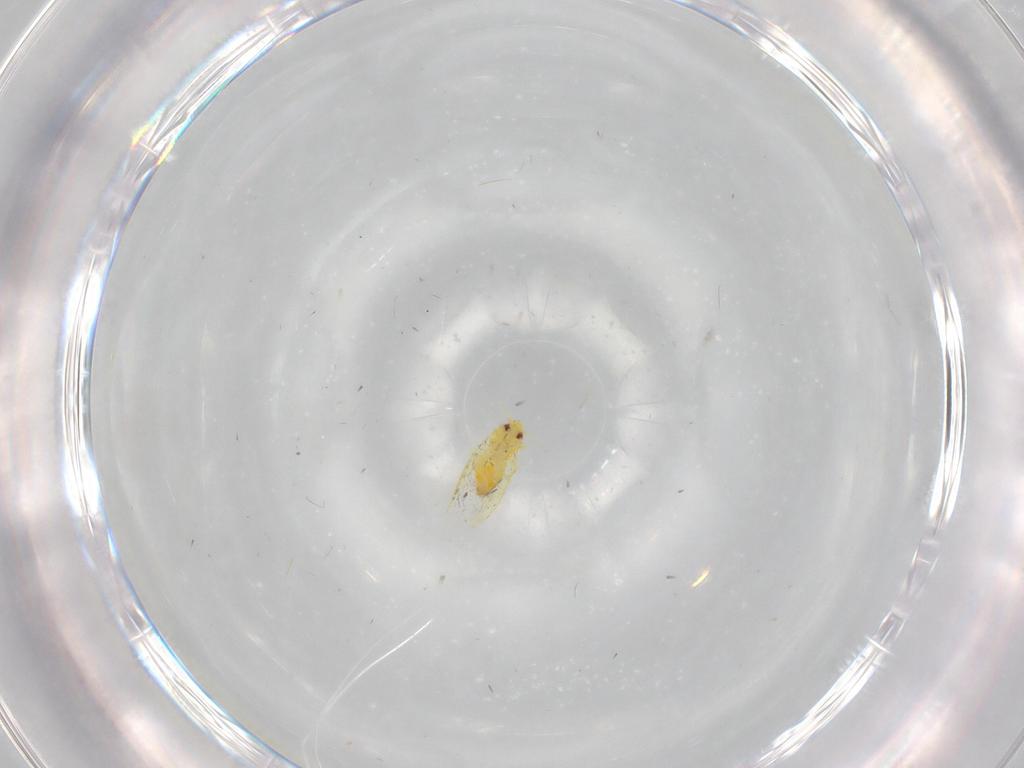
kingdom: Animalia
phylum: Arthropoda
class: Insecta
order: Hemiptera
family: Aleyrodidae
